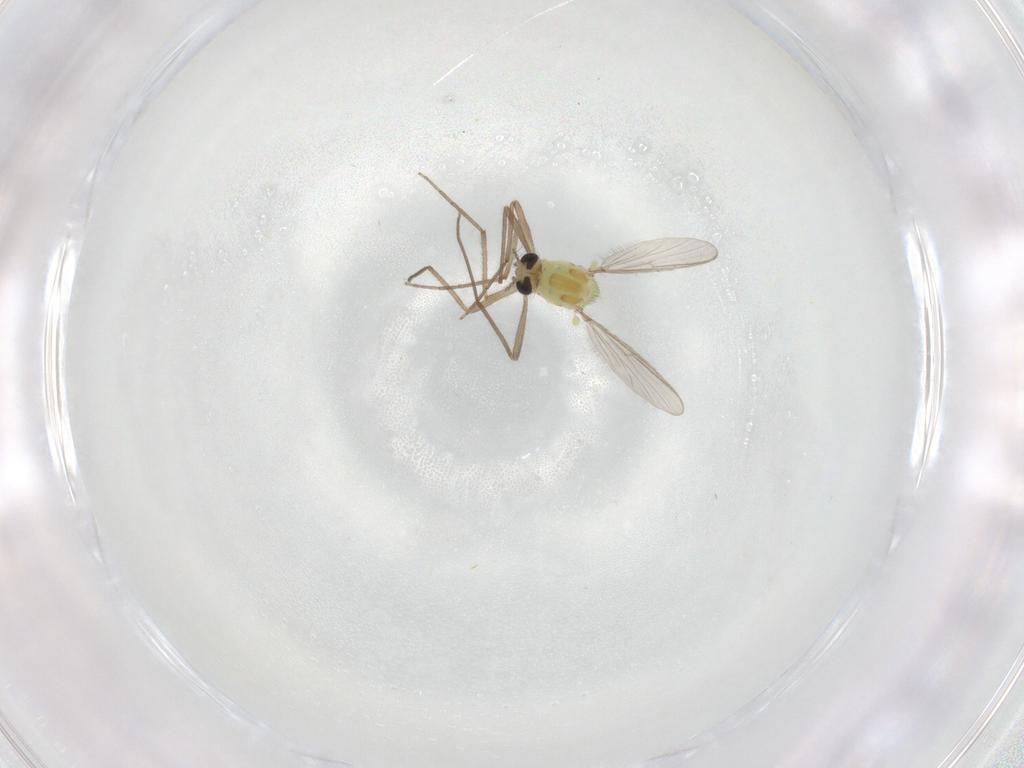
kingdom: Animalia
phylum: Arthropoda
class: Insecta
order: Diptera
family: Chironomidae
